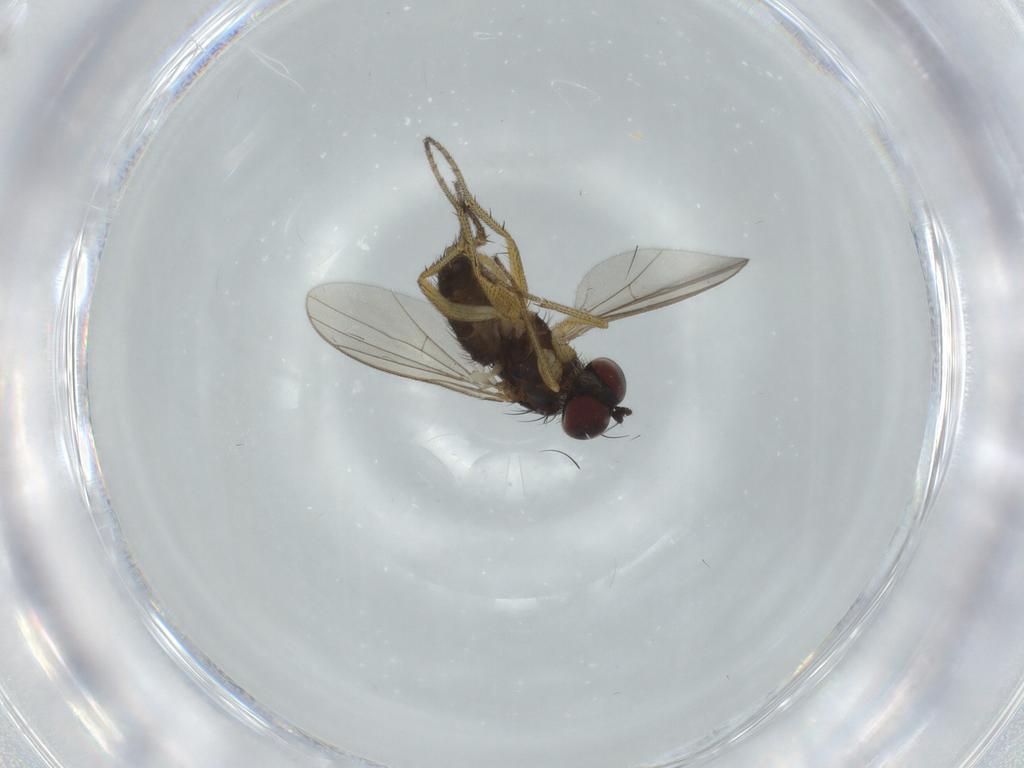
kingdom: Animalia
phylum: Arthropoda
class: Insecta
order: Diptera
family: Dolichopodidae
